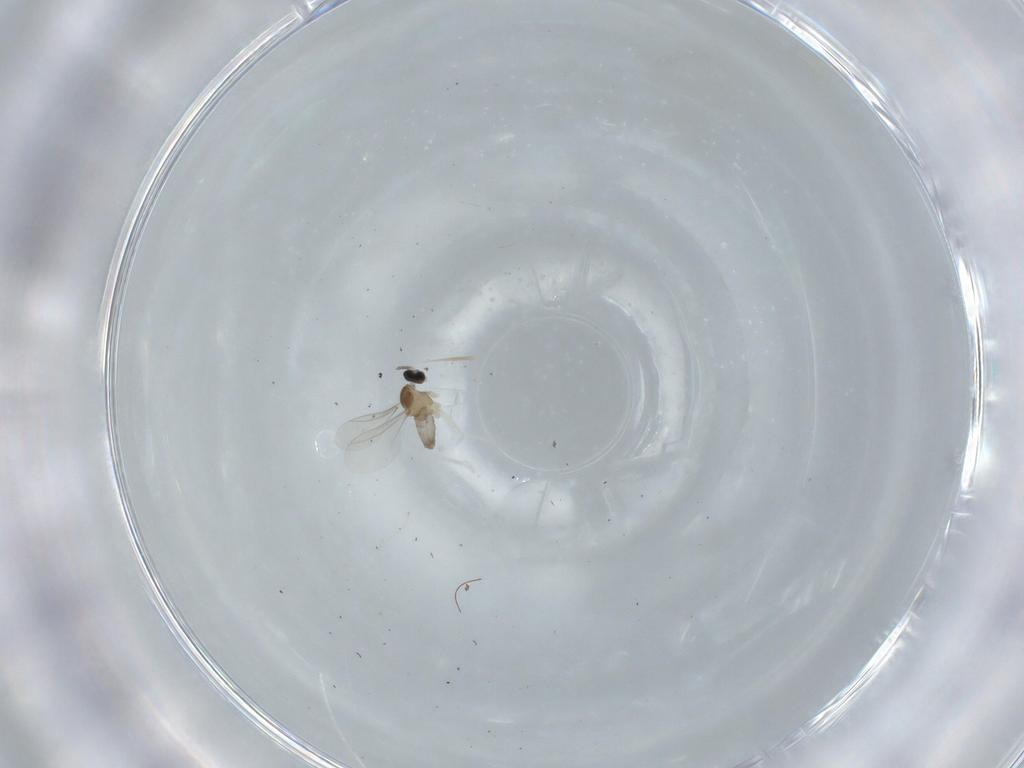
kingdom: Animalia
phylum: Arthropoda
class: Insecta
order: Diptera
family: Cecidomyiidae
